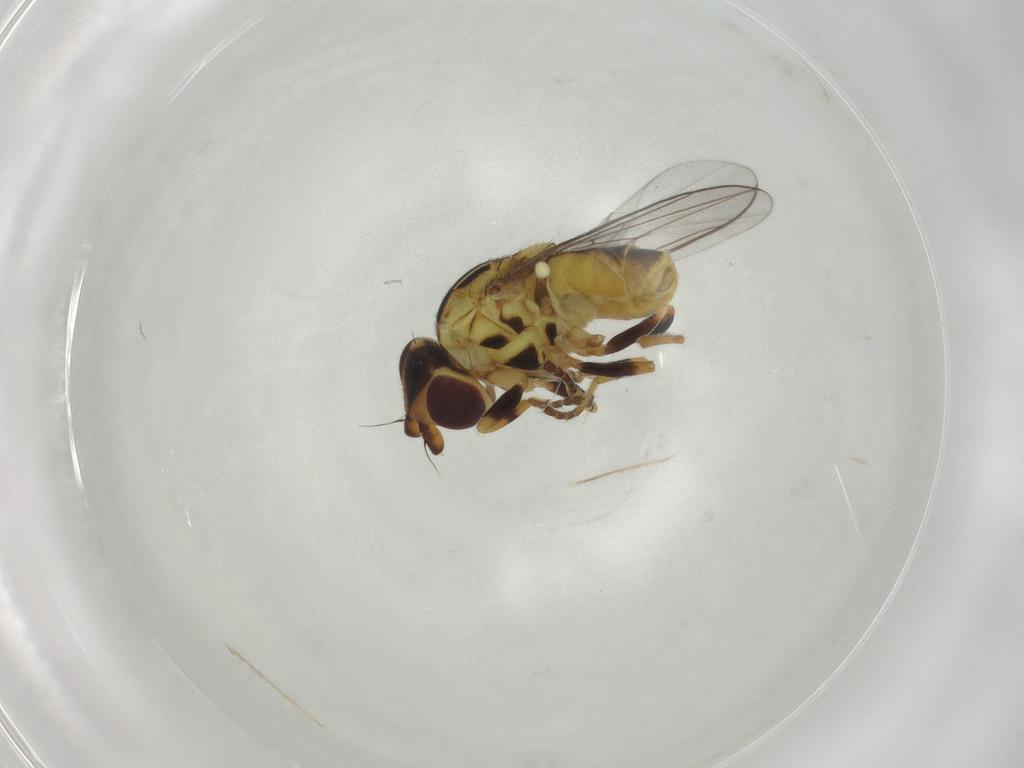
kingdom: Animalia
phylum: Arthropoda
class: Insecta
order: Diptera
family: Chloropidae
